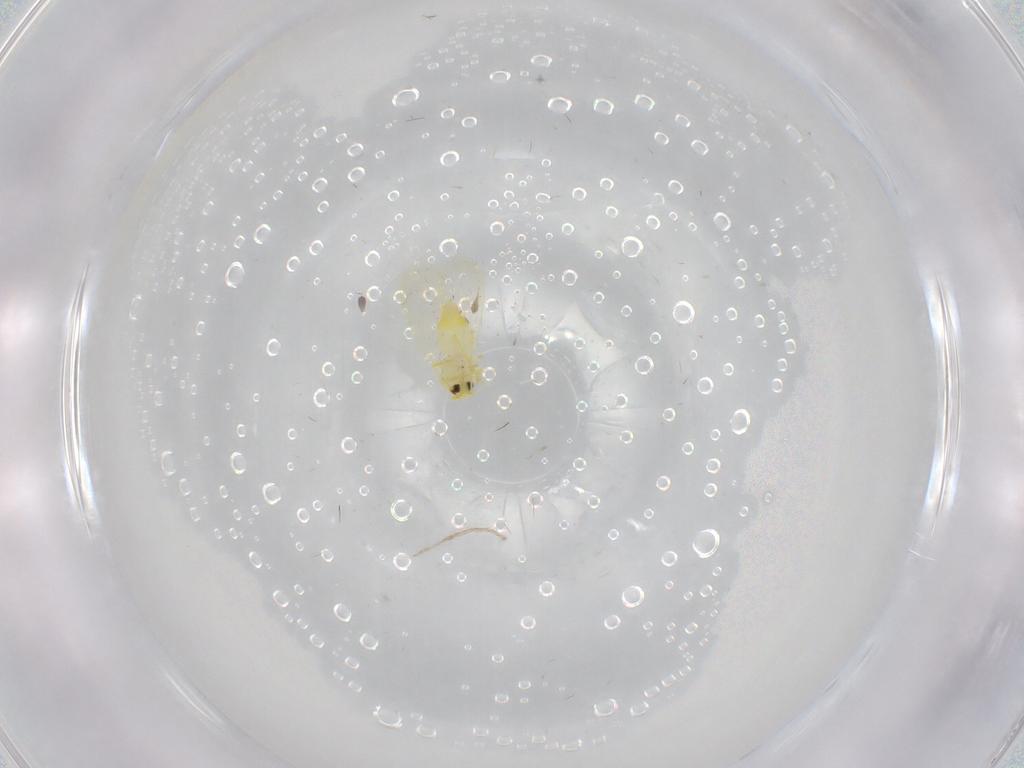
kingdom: Animalia
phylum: Arthropoda
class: Insecta
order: Hemiptera
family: Aleyrodidae
